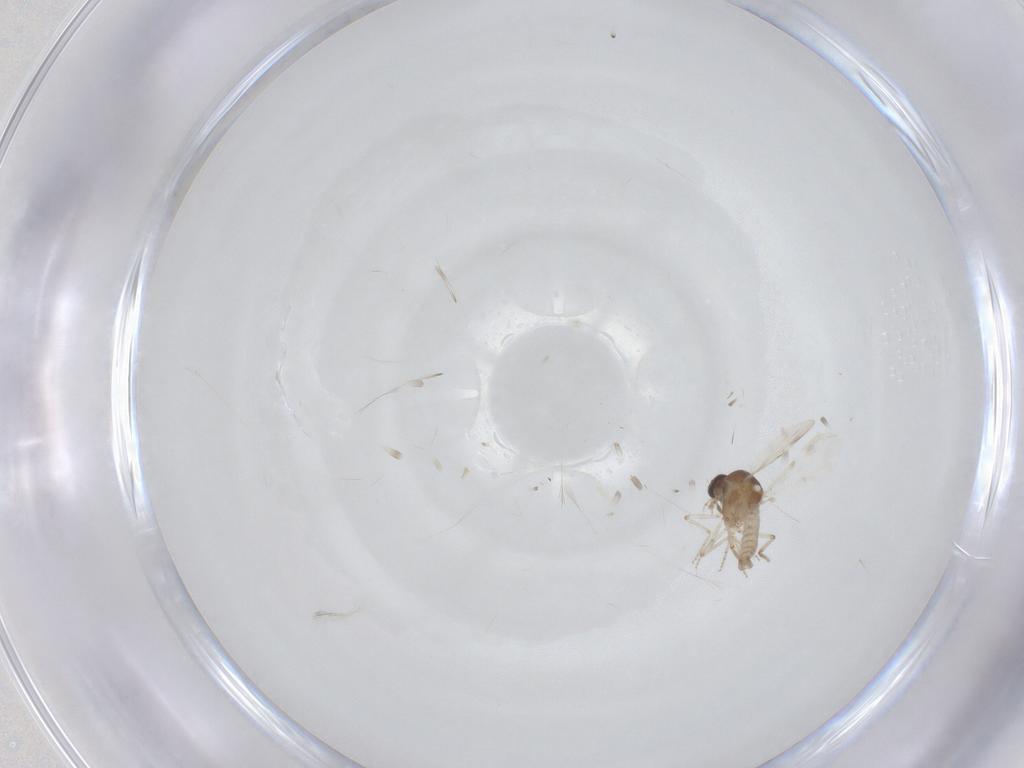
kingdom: Animalia
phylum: Arthropoda
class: Insecta
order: Diptera
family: Ceratopogonidae
